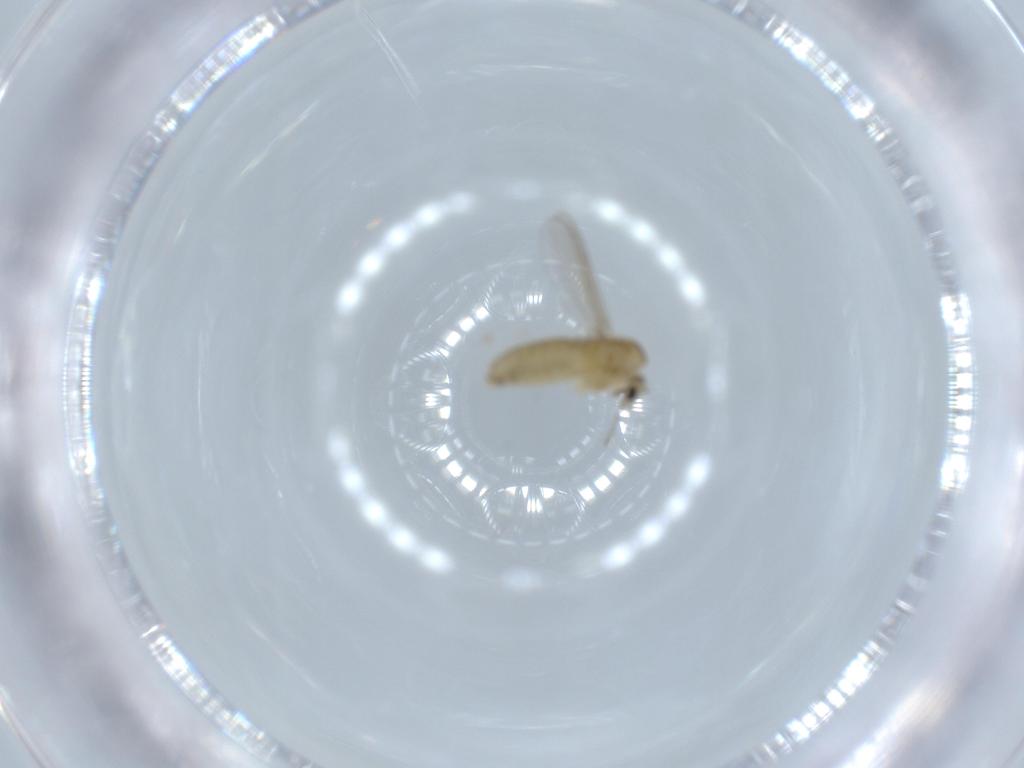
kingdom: Animalia
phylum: Arthropoda
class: Insecta
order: Diptera
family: Chironomidae
